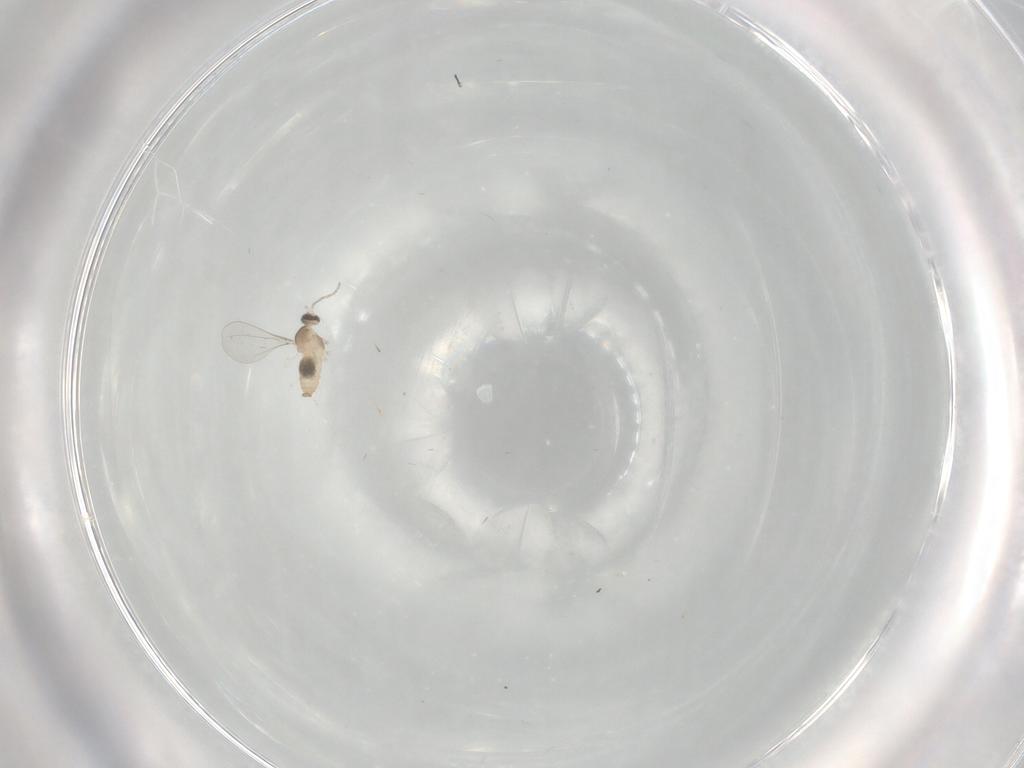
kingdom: Animalia
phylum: Arthropoda
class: Insecta
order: Diptera
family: Cecidomyiidae
